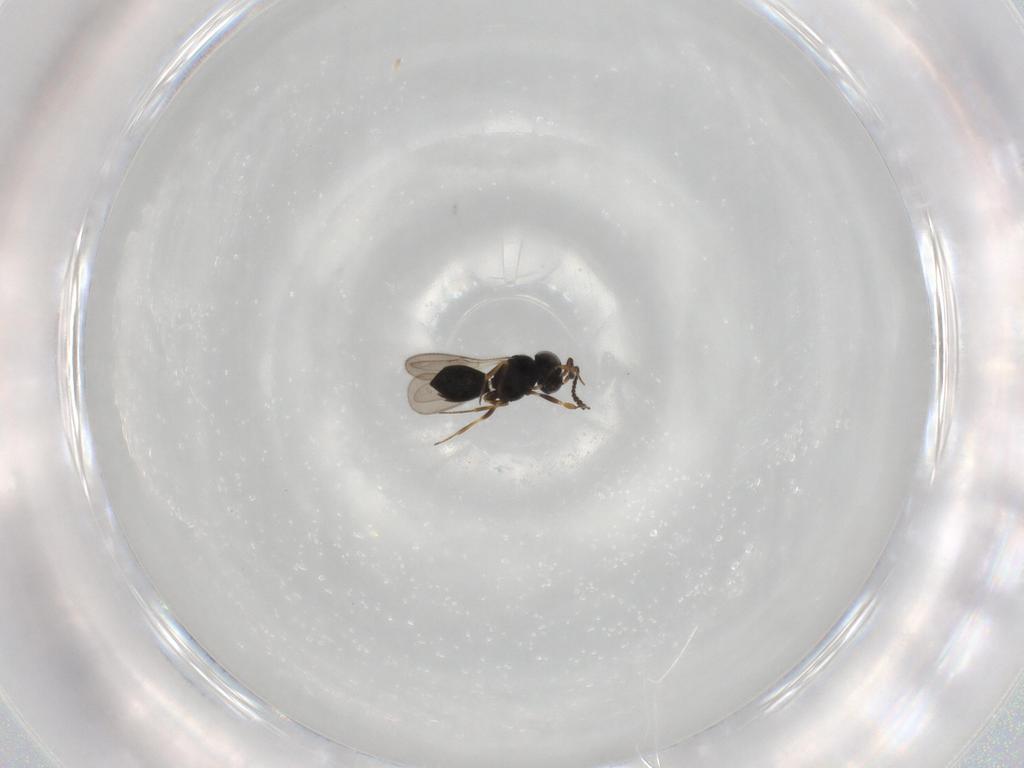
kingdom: Animalia
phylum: Arthropoda
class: Insecta
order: Hymenoptera
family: Scelionidae
